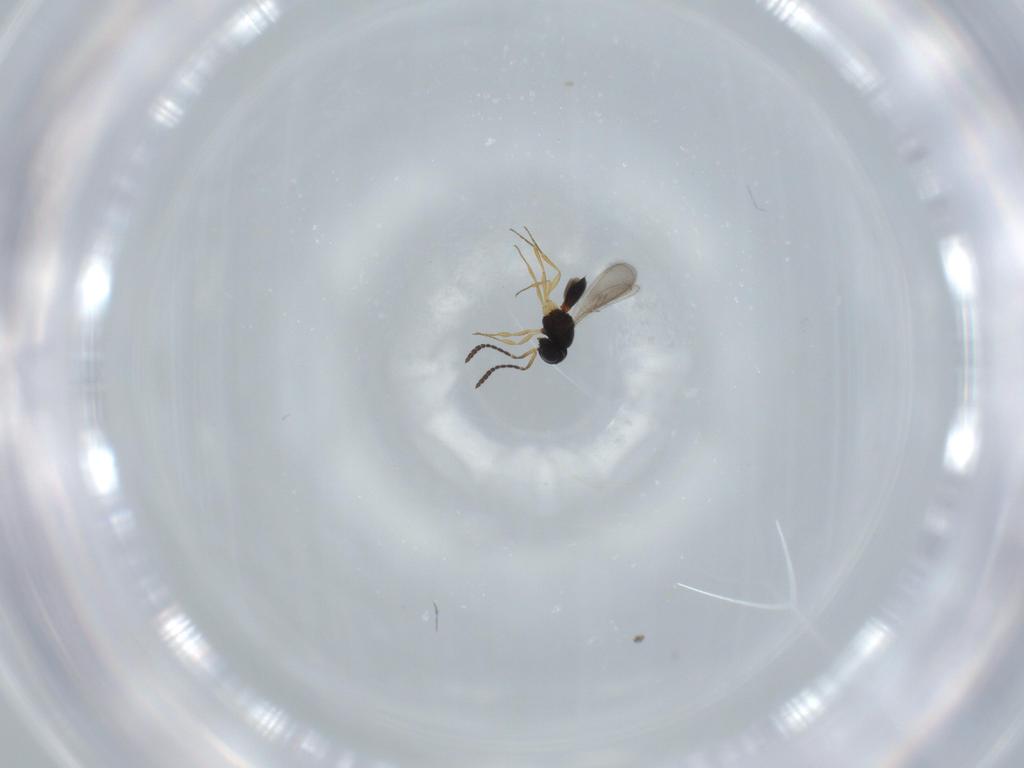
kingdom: Animalia
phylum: Arthropoda
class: Insecta
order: Hymenoptera
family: Scelionidae
